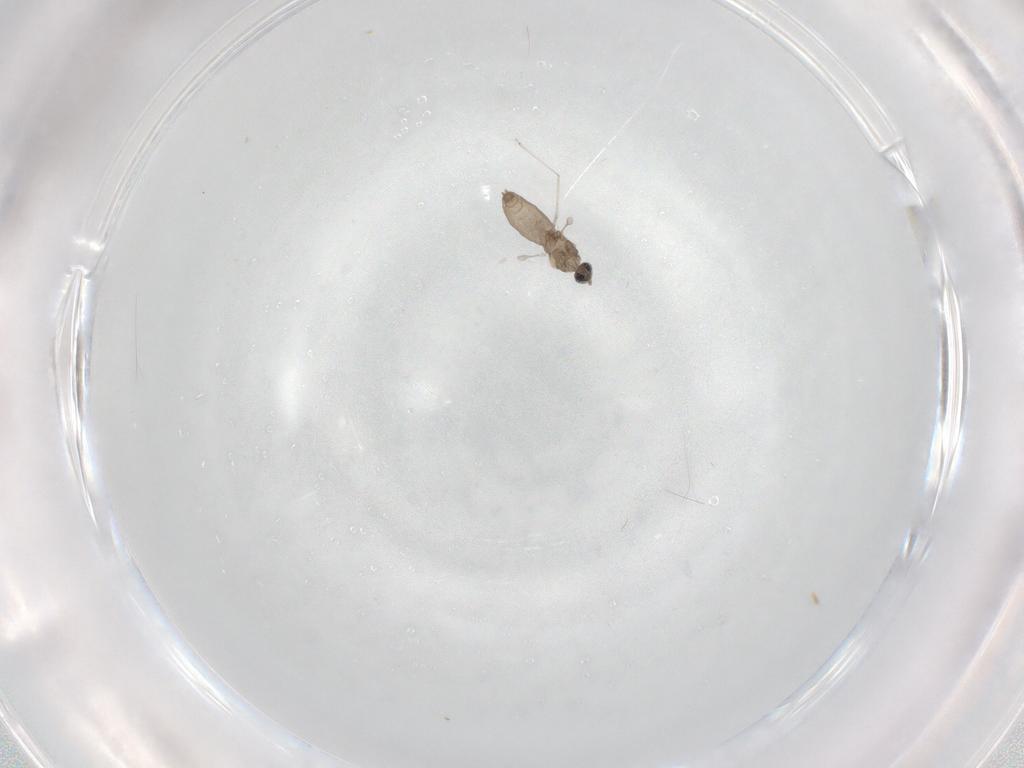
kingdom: Animalia
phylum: Arthropoda
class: Insecta
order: Diptera
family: Cecidomyiidae
